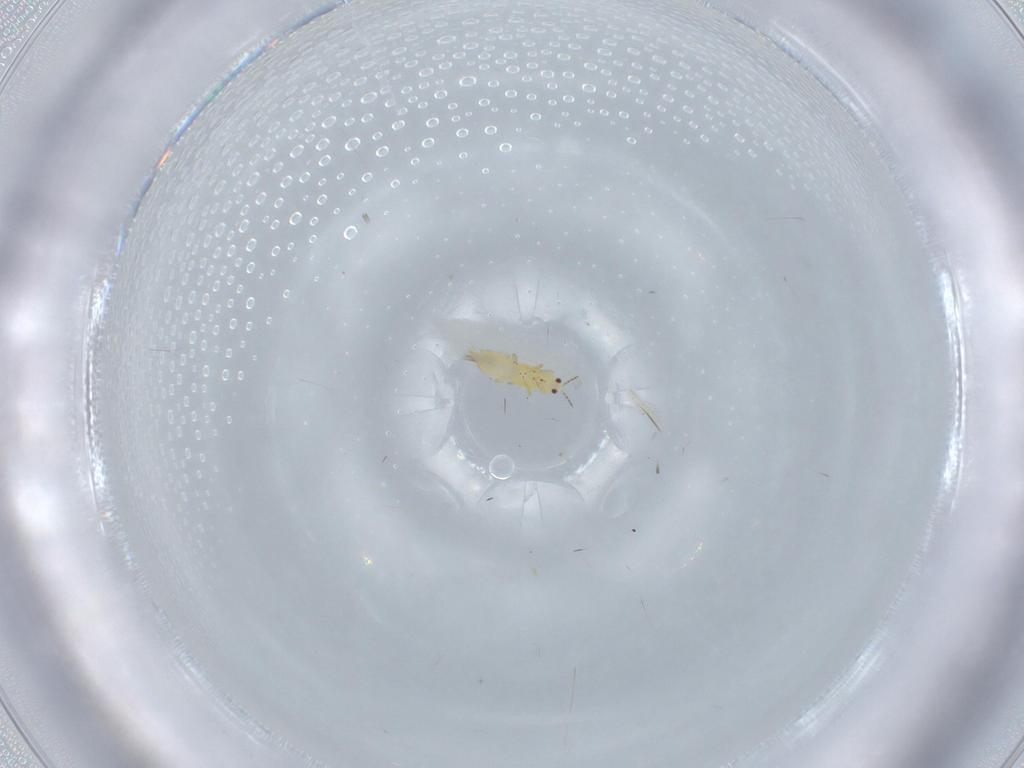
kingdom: Animalia
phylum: Arthropoda
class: Insecta
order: Thysanoptera
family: Thripidae
